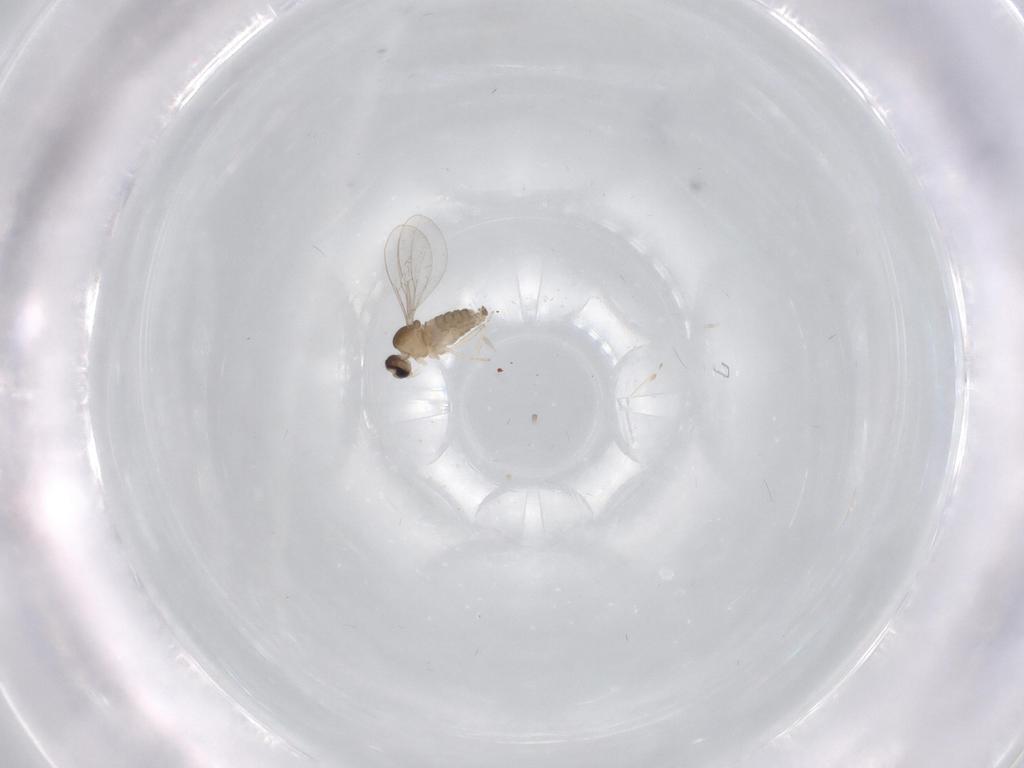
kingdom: Animalia
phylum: Arthropoda
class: Insecta
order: Diptera
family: Cecidomyiidae
